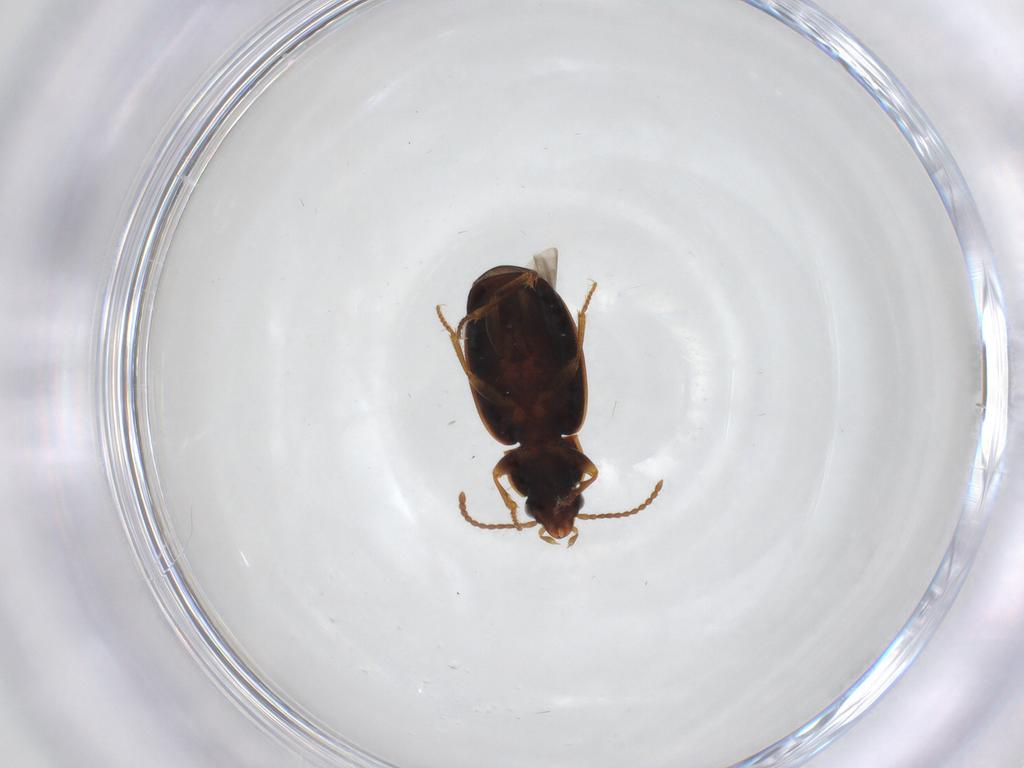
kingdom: Animalia
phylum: Arthropoda
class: Insecta
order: Coleoptera
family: Carabidae
